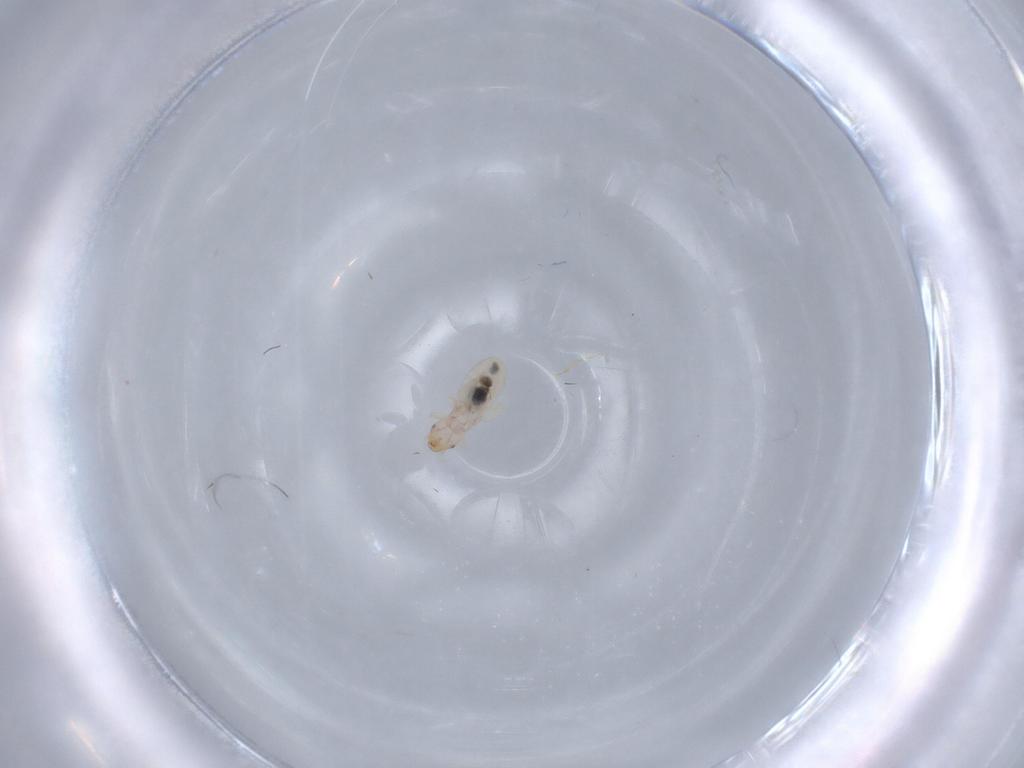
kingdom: Animalia
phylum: Arthropoda
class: Insecta
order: Psocodea
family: Liposcelididae
